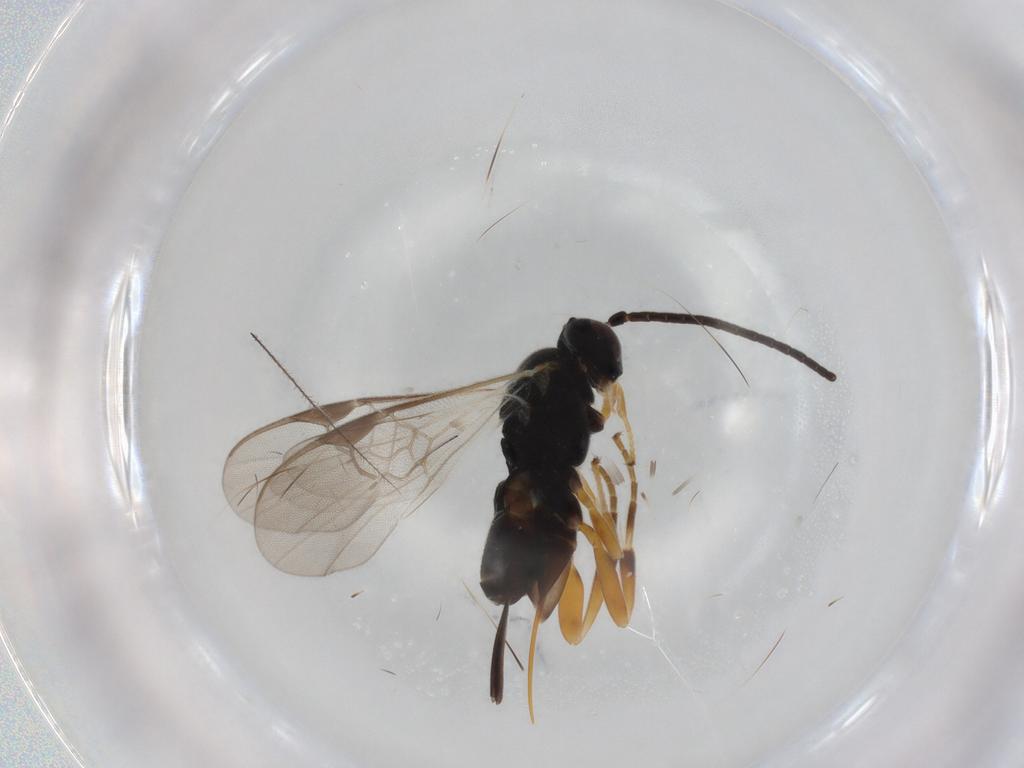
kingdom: Animalia
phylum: Arthropoda
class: Insecta
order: Hymenoptera
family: Braconidae
